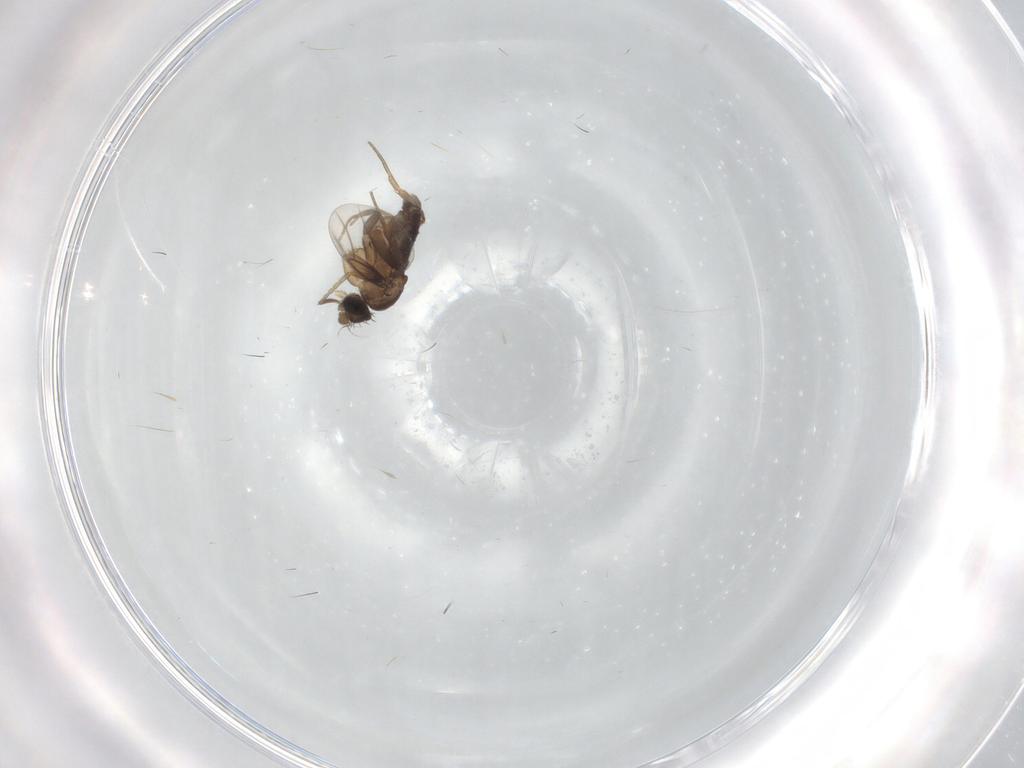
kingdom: Animalia
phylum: Arthropoda
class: Insecta
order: Diptera
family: Phoridae
